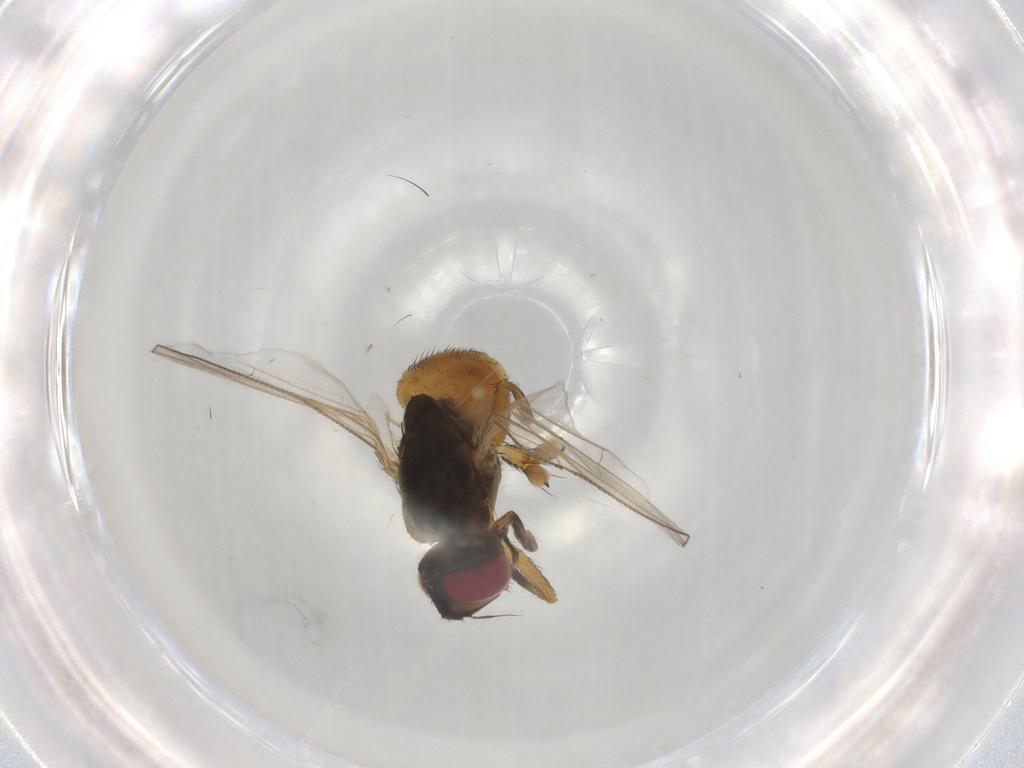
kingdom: Animalia
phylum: Arthropoda
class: Insecta
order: Diptera
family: Muscidae
